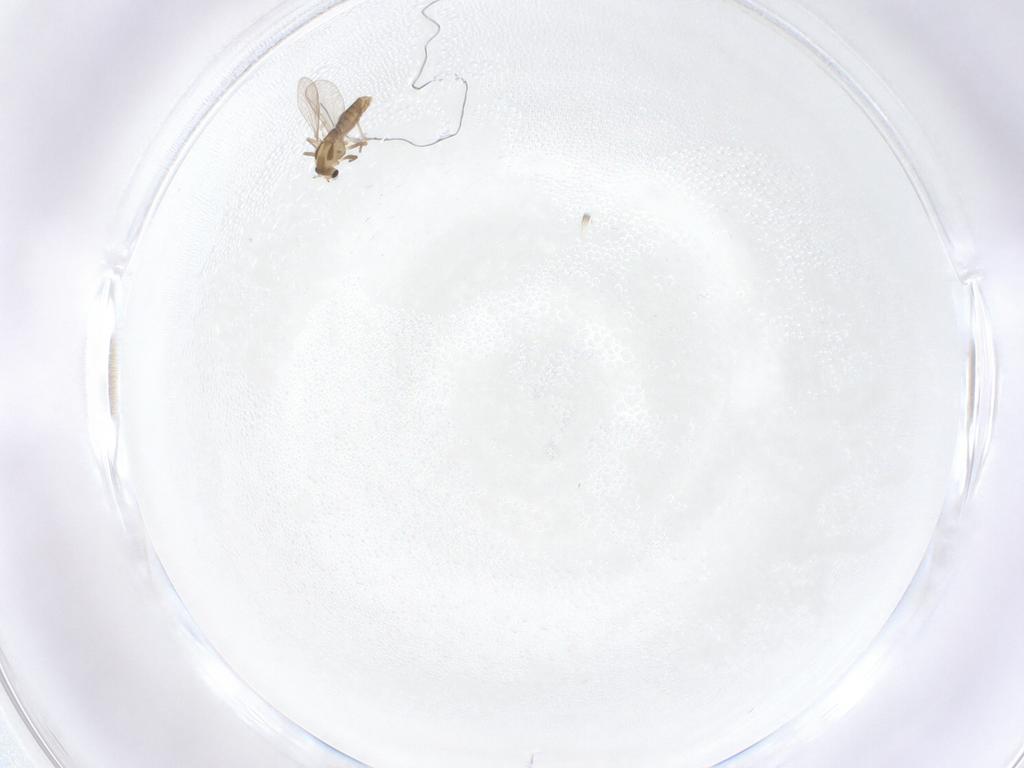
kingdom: Animalia
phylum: Arthropoda
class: Insecta
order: Diptera
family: Chironomidae
